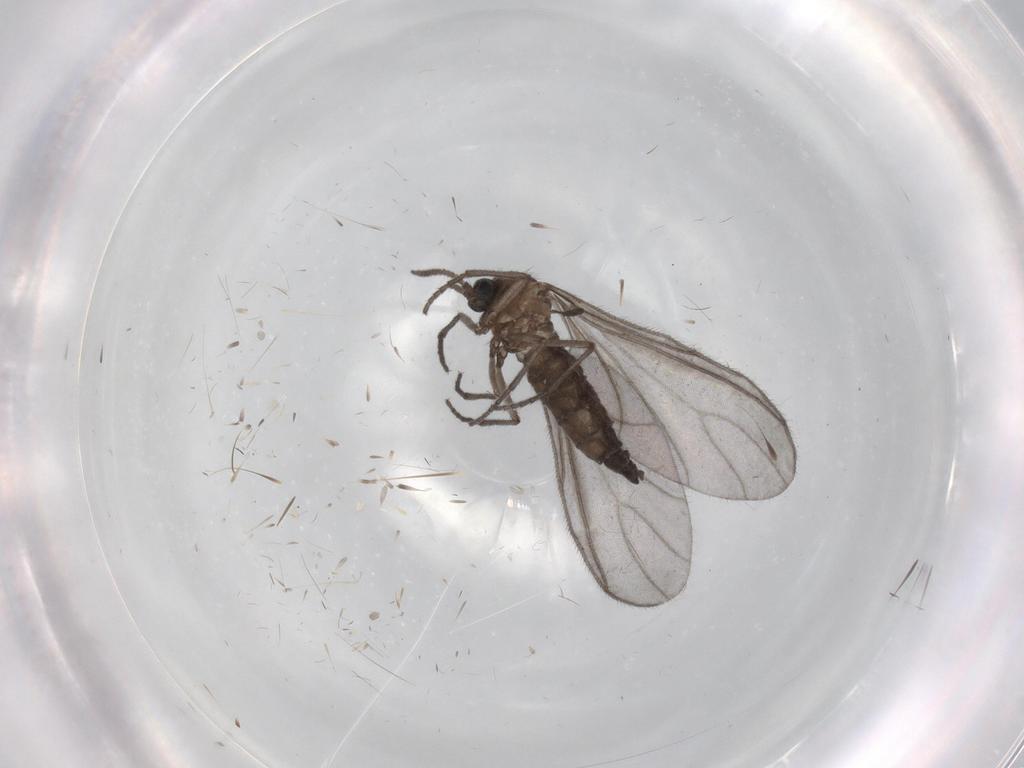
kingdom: Animalia
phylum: Arthropoda
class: Insecta
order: Diptera
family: Sciaridae
